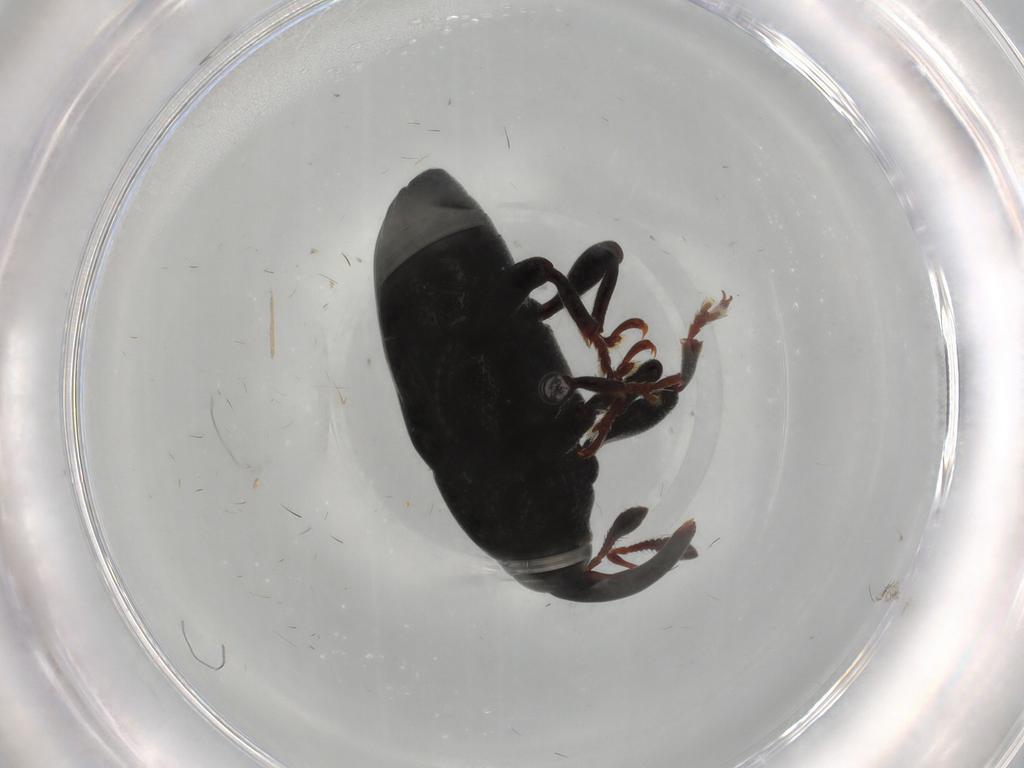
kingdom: Animalia
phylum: Arthropoda
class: Insecta
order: Coleoptera
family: Curculionidae
